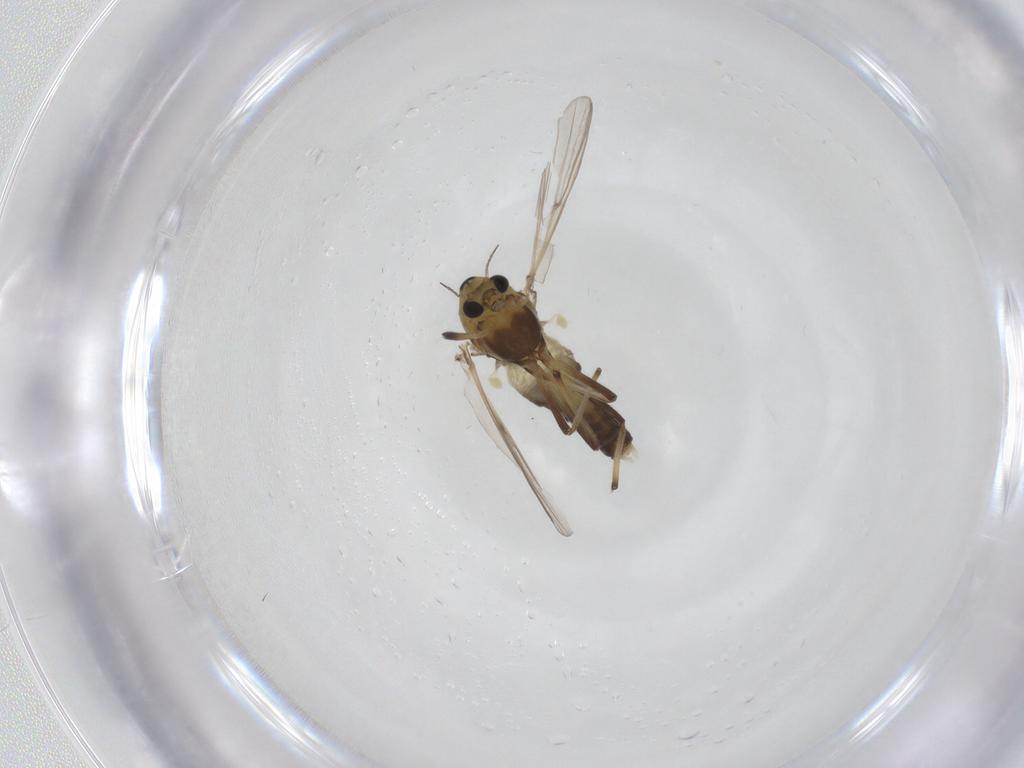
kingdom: Animalia
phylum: Arthropoda
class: Insecta
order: Diptera
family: Chironomidae
